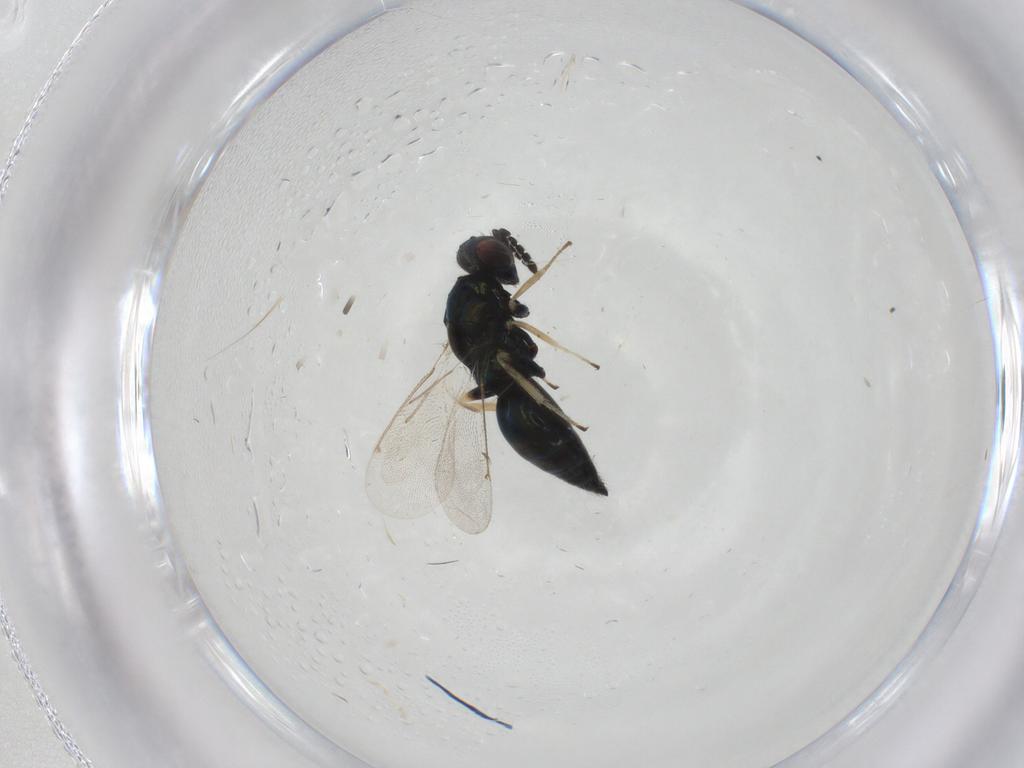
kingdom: Animalia
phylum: Arthropoda
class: Insecta
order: Hymenoptera
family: Eulophidae
